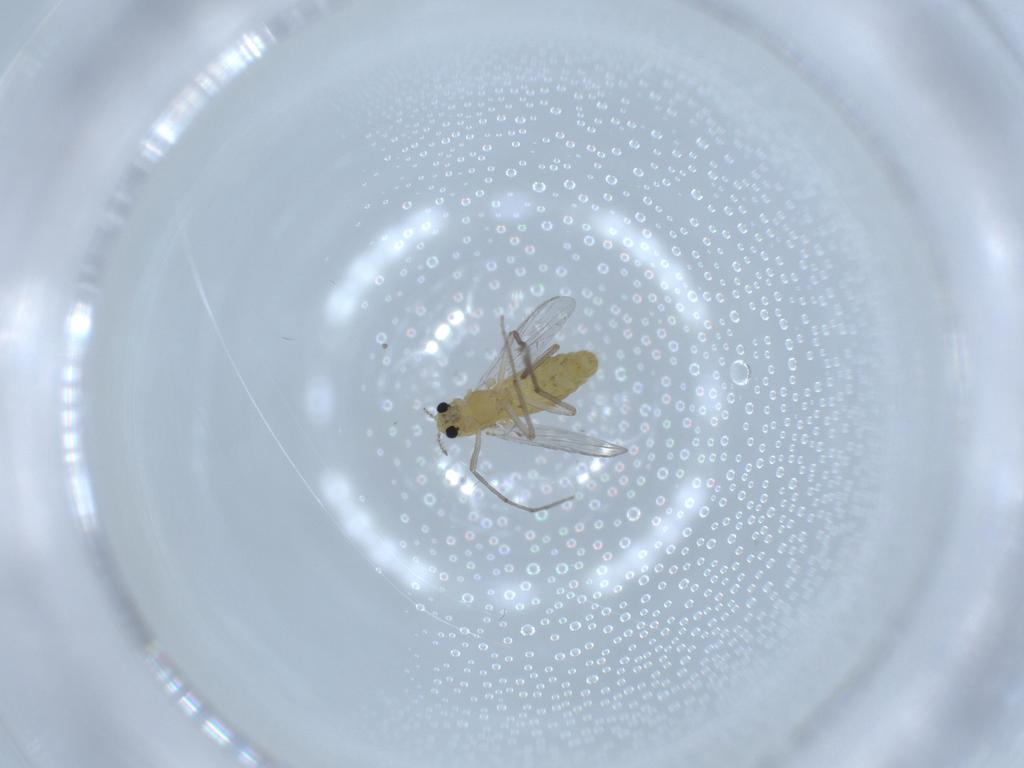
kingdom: Animalia
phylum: Arthropoda
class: Insecta
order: Diptera
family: Chironomidae
